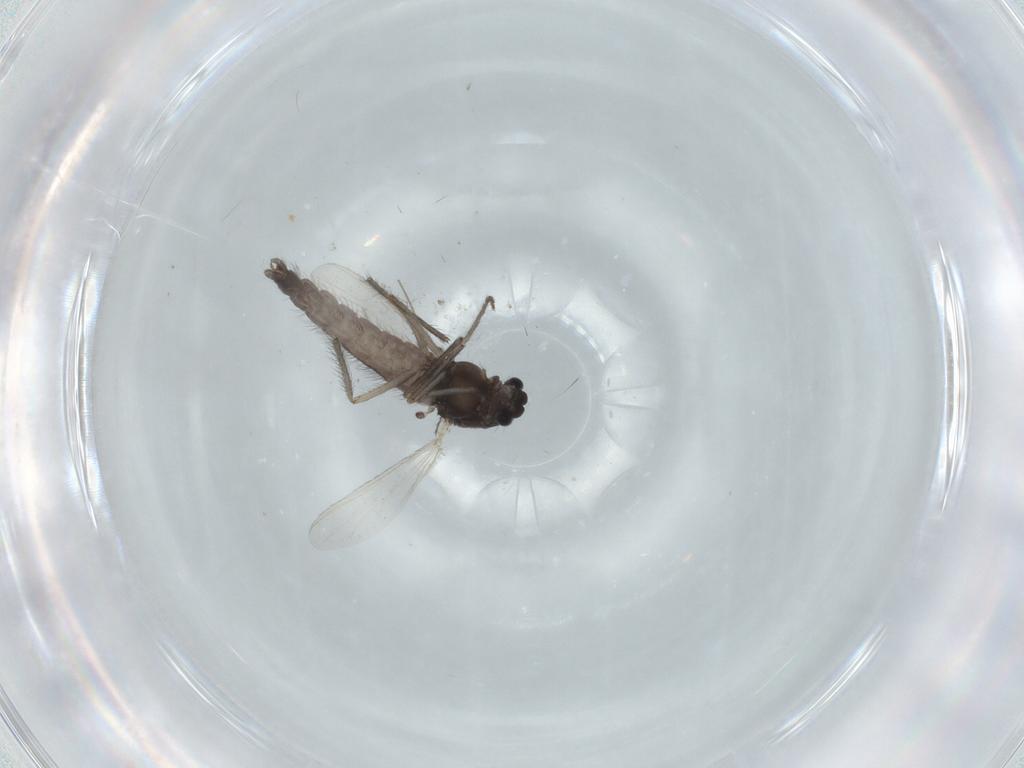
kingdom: Animalia
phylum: Arthropoda
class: Insecta
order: Diptera
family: Chironomidae
